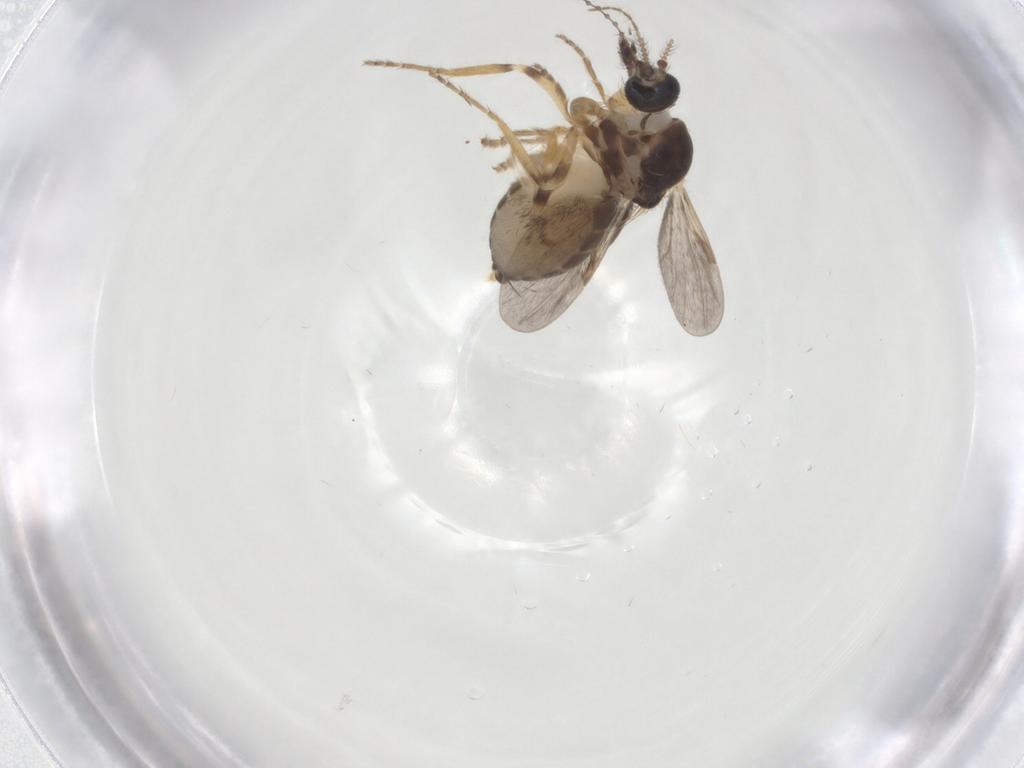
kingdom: Animalia
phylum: Arthropoda
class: Insecta
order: Diptera
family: Ceratopogonidae
